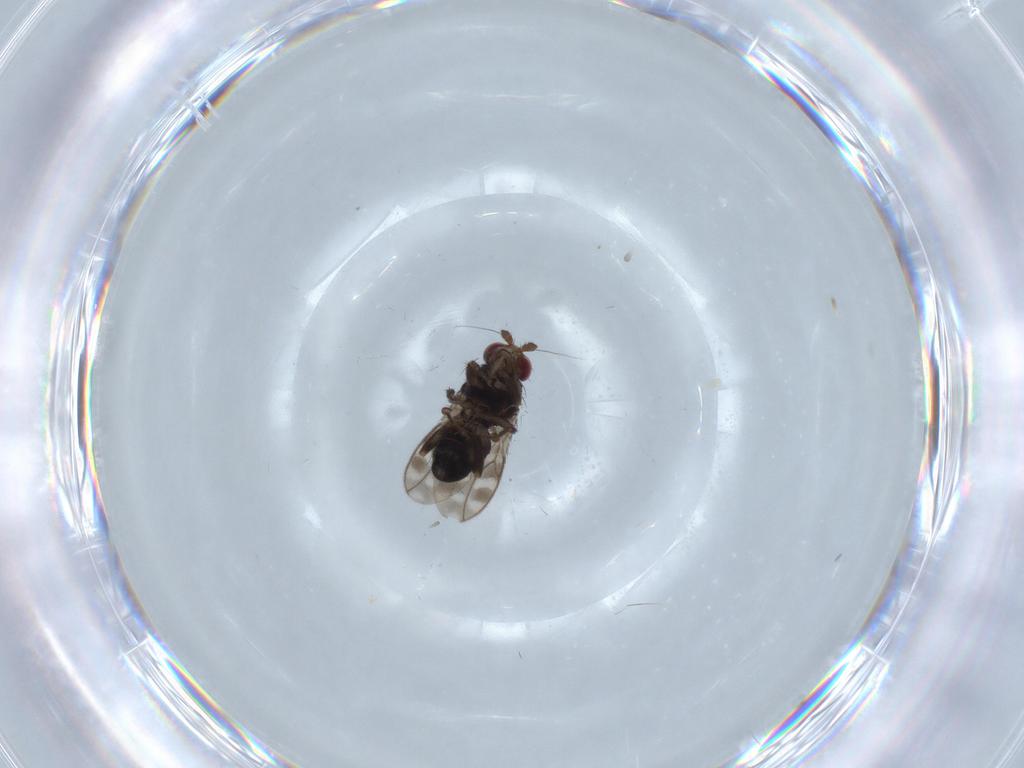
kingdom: Animalia
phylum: Arthropoda
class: Insecta
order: Diptera
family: Sphaeroceridae
